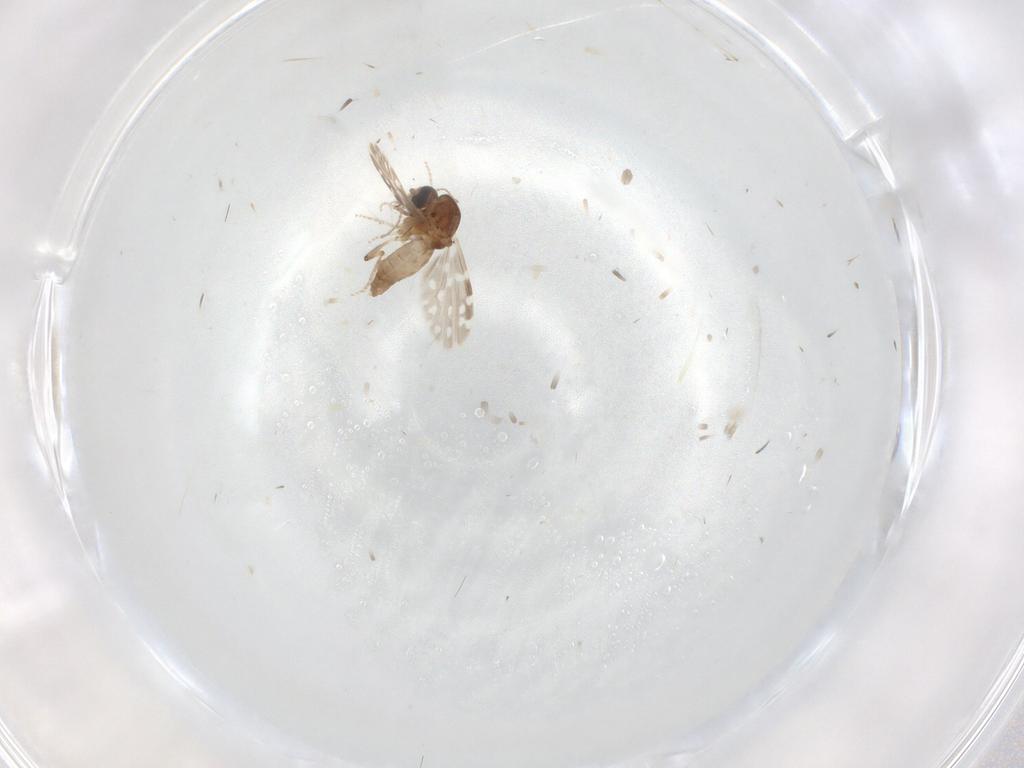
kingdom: Animalia
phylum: Arthropoda
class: Insecta
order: Diptera
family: Ceratopogonidae
